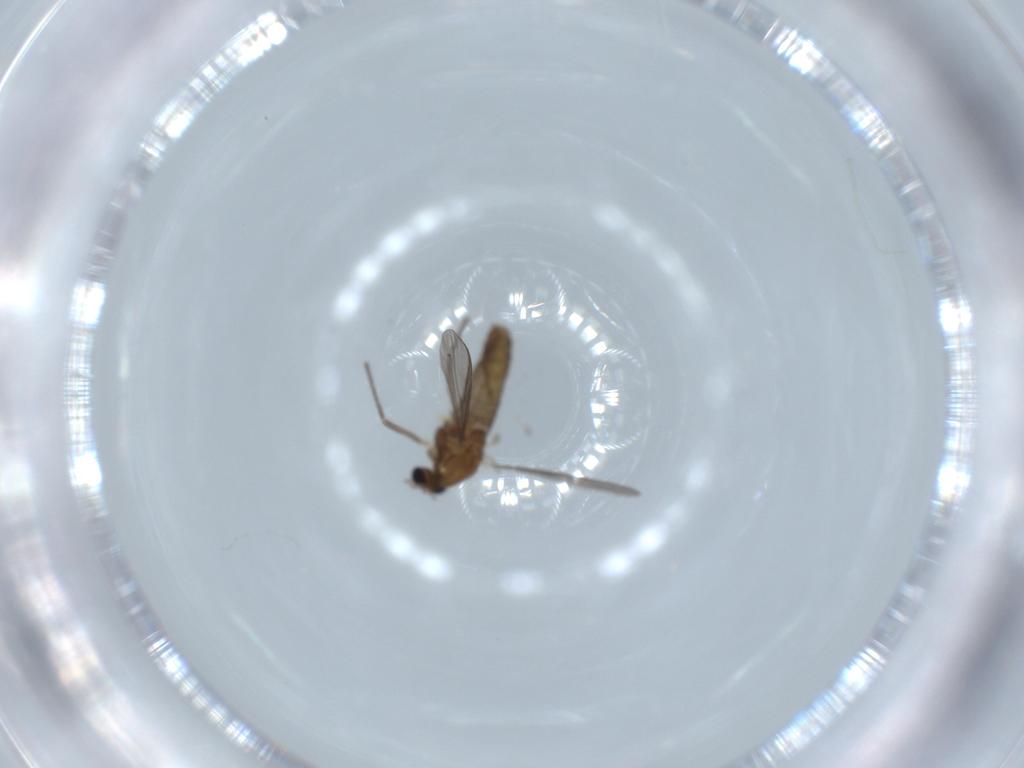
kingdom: Animalia
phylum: Arthropoda
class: Insecta
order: Diptera
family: Chironomidae
